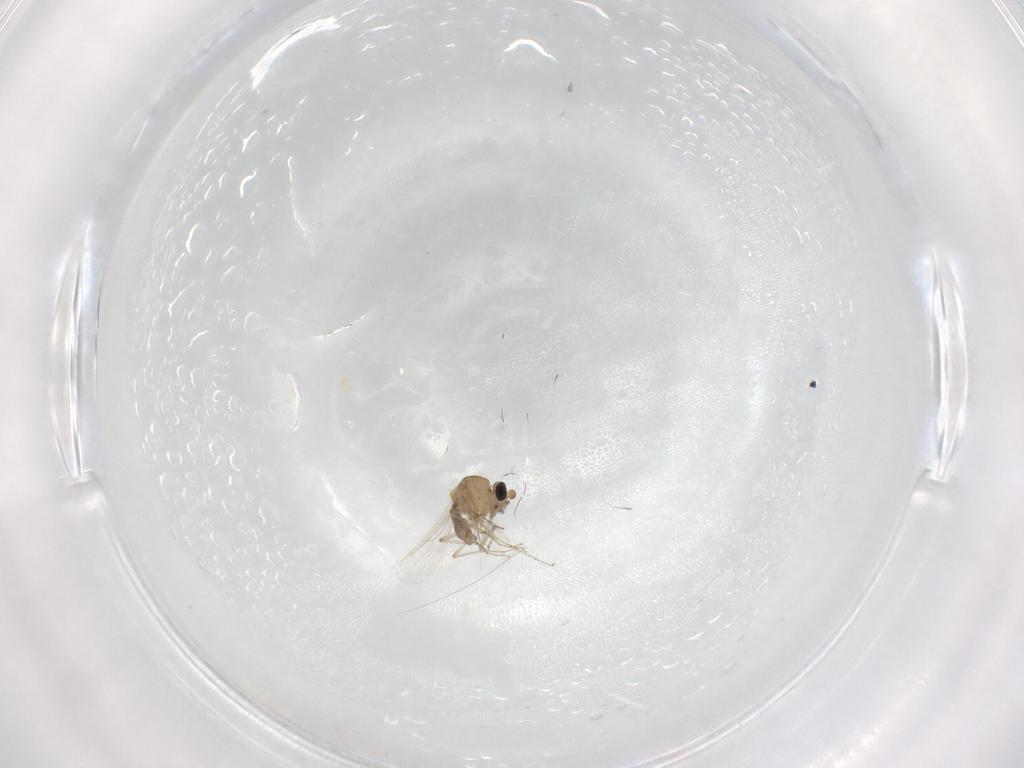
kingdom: Animalia
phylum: Arthropoda
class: Insecta
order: Diptera
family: Ceratopogonidae
